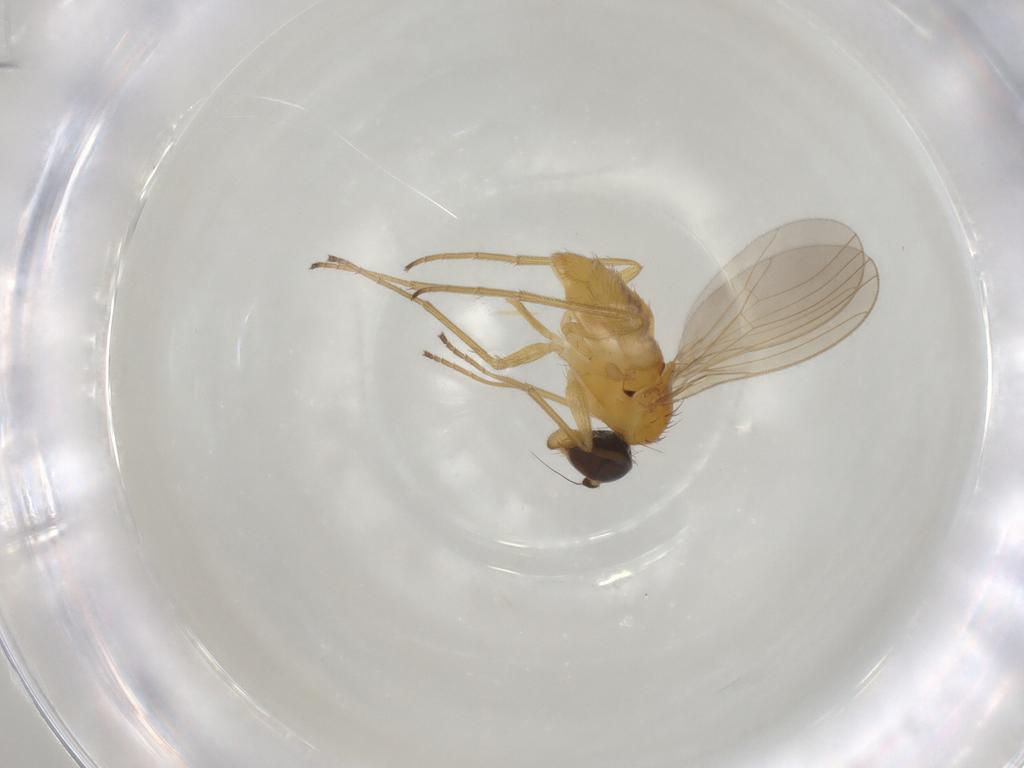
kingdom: Animalia
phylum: Arthropoda
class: Insecta
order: Diptera
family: Dolichopodidae
